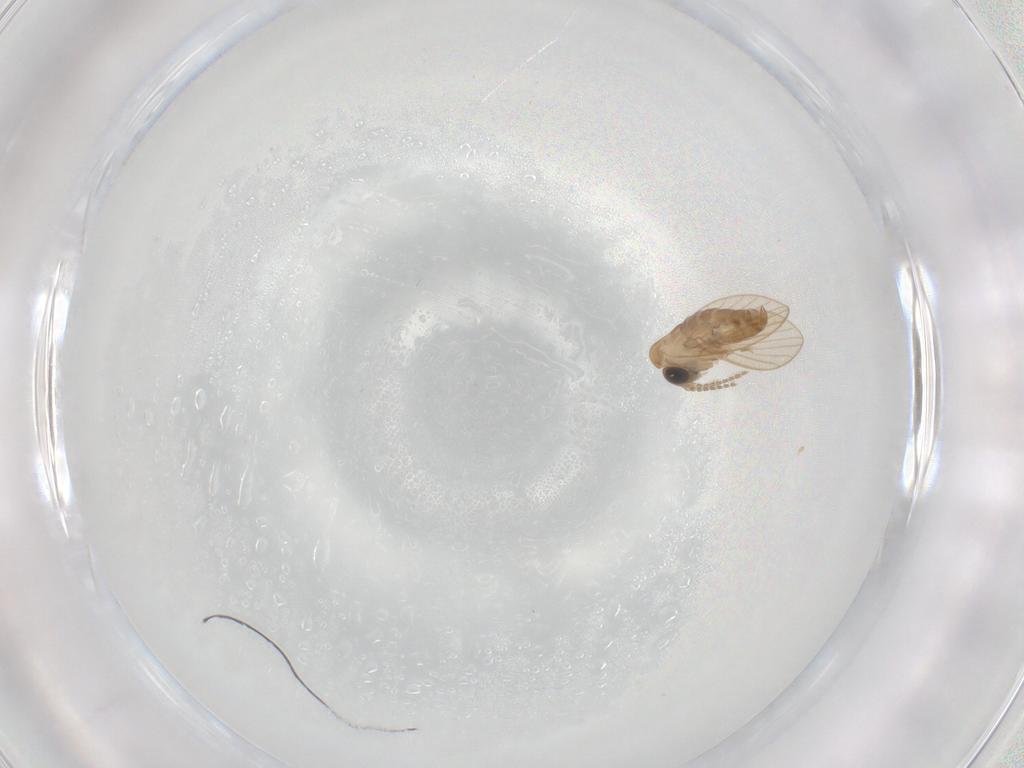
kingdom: Animalia
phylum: Arthropoda
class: Insecta
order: Diptera
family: Psychodidae
